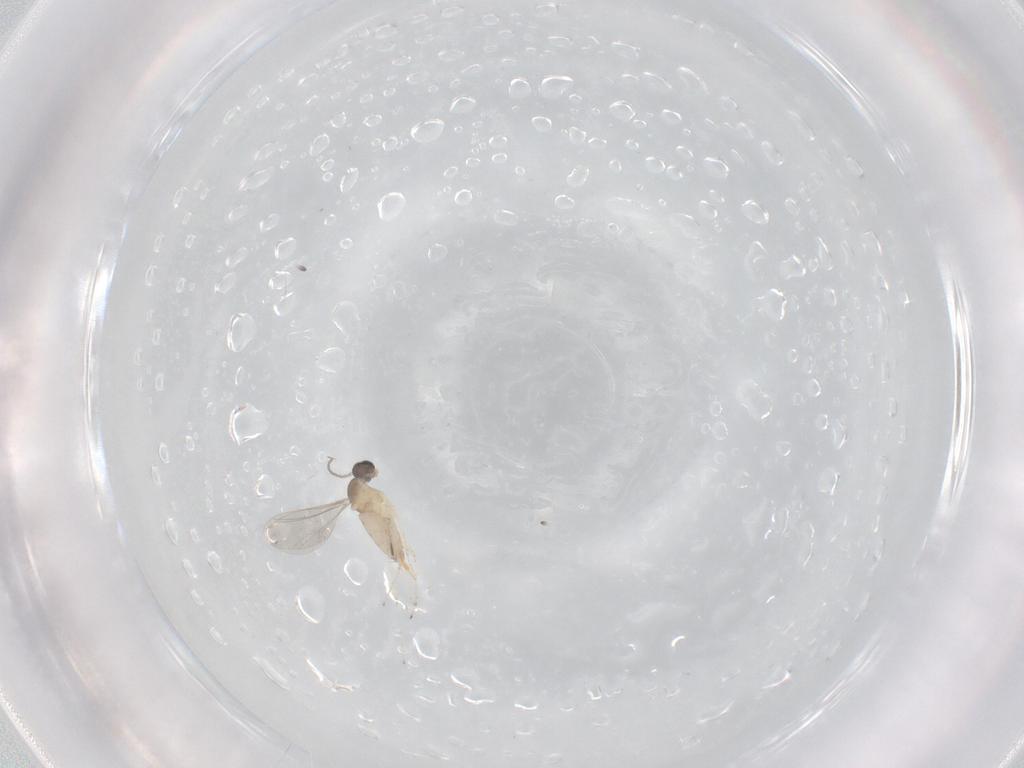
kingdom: Animalia
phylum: Arthropoda
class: Insecta
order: Diptera
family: Cecidomyiidae
